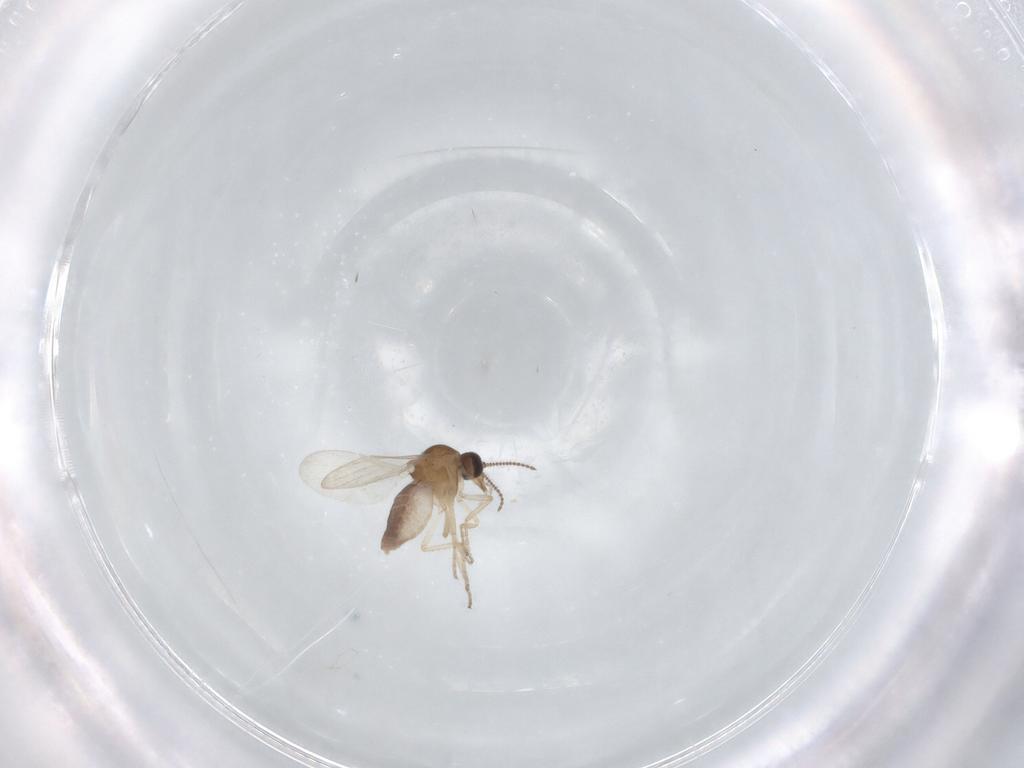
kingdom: Animalia
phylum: Arthropoda
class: Insecta
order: Diptera
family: Ceratopogonidae
